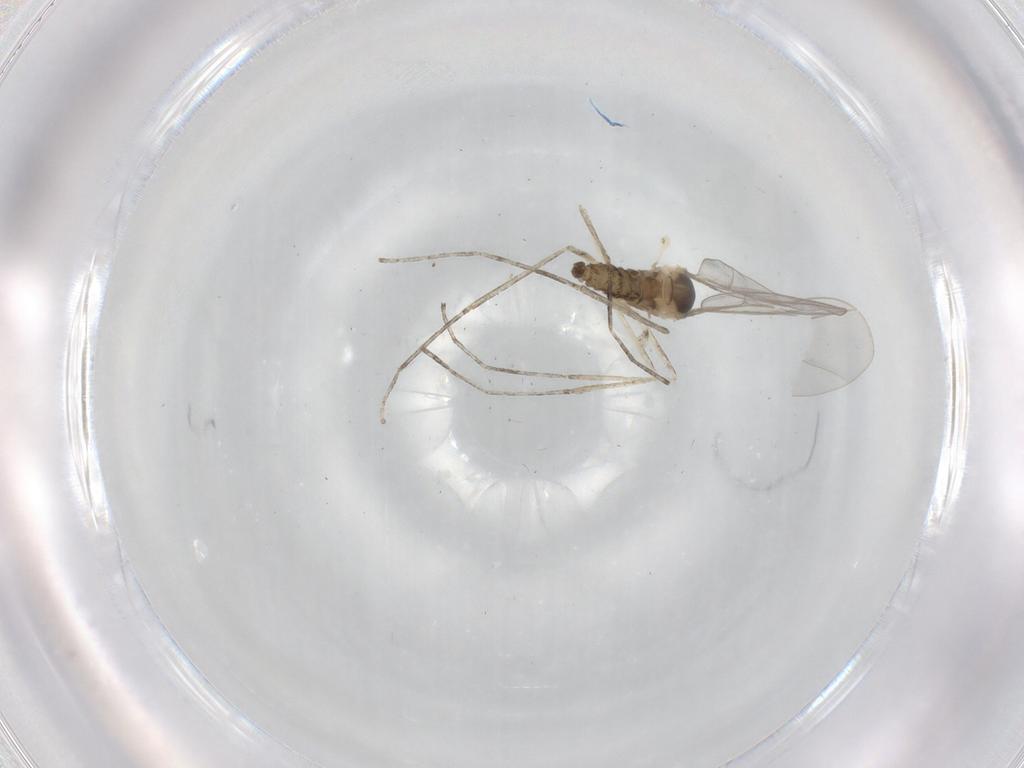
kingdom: Animalia
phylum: Arthropoda
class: Insecta
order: Diptera
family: Cecidomyiidae
